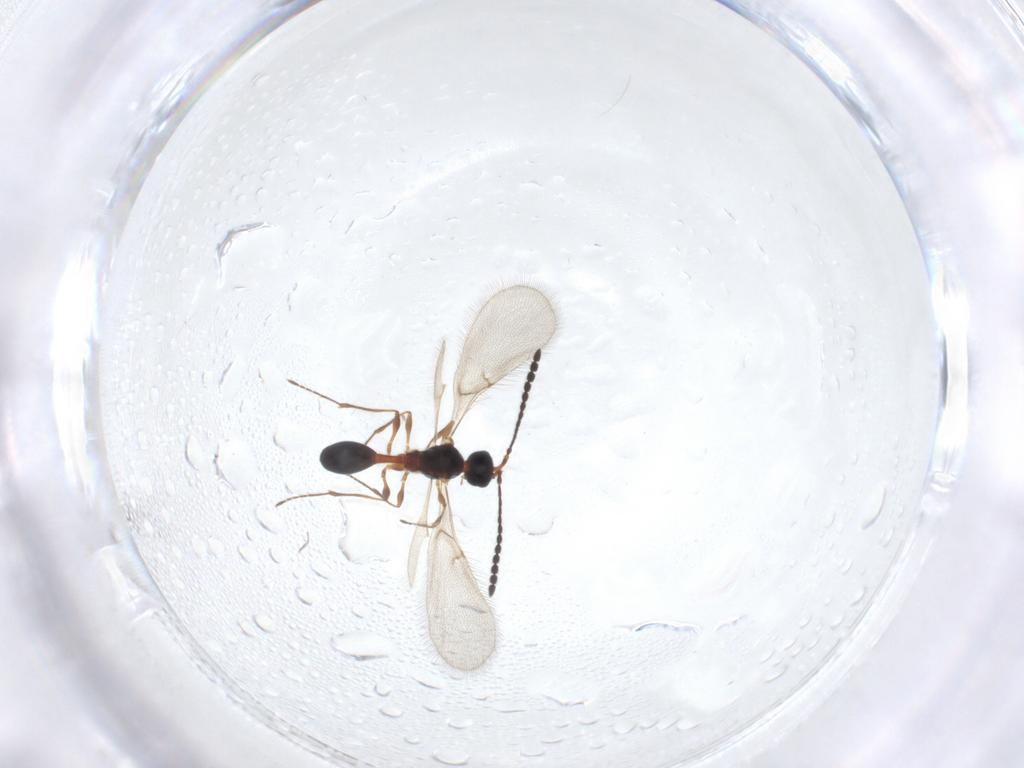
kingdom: Animalia
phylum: Arthropoda
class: Insecta
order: Hymenoptera
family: Diapriidae
